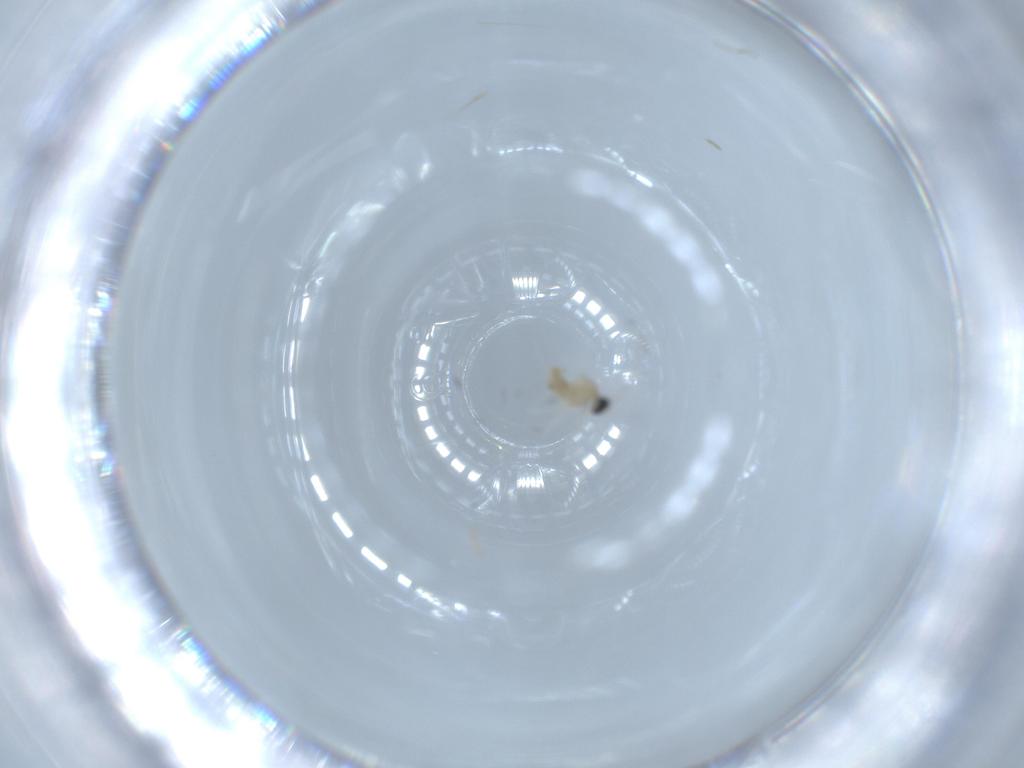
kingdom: Animalia
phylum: Arthropoda
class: Insecta
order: Diptera
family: Cecidomyiidae
